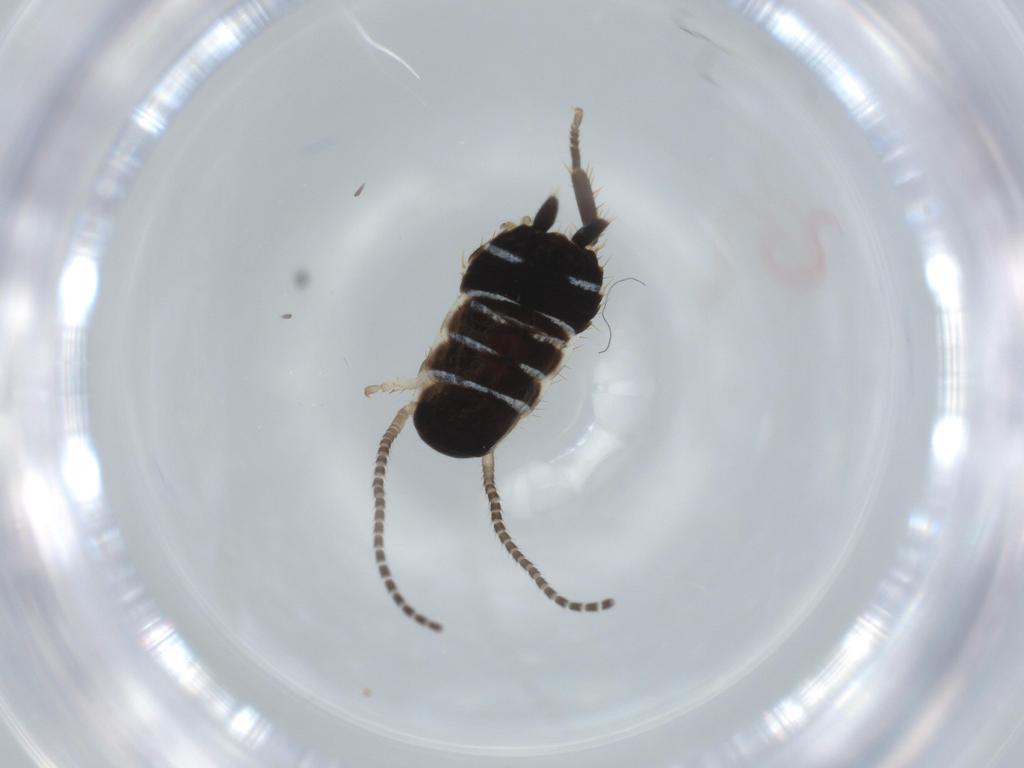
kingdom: Animalia
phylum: Arthropoda
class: Insecta
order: Blattodea
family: Ectobiidae
